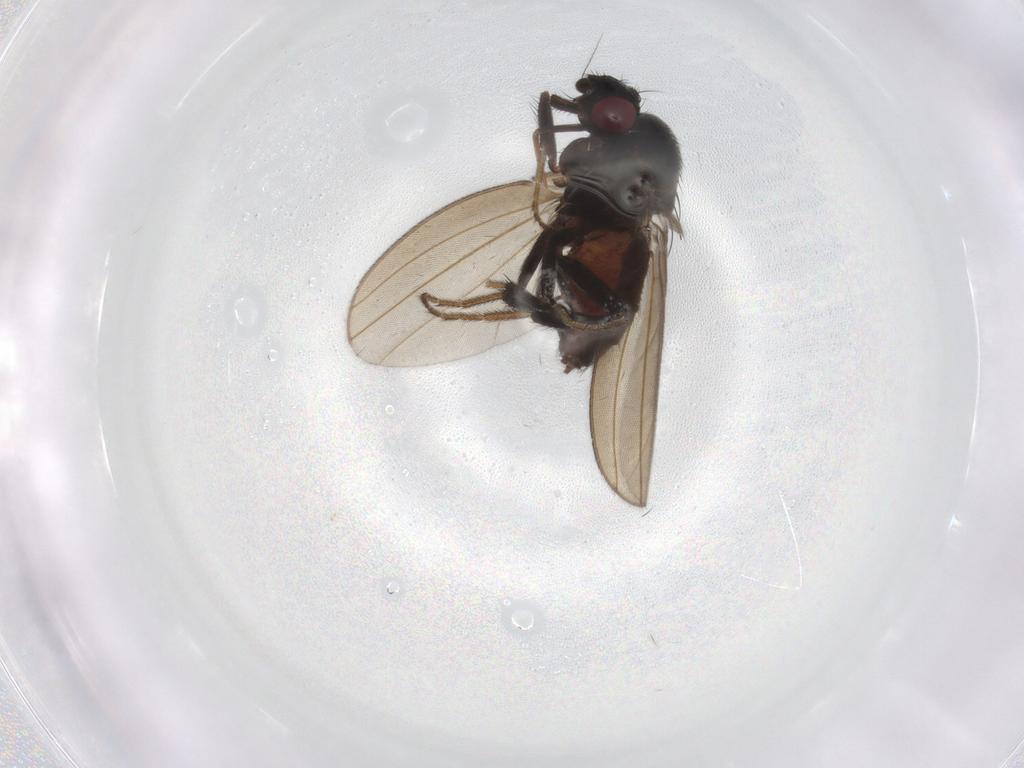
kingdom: Animalia
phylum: Arthropoda
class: Insecta
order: Diptera
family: Milichiidae
